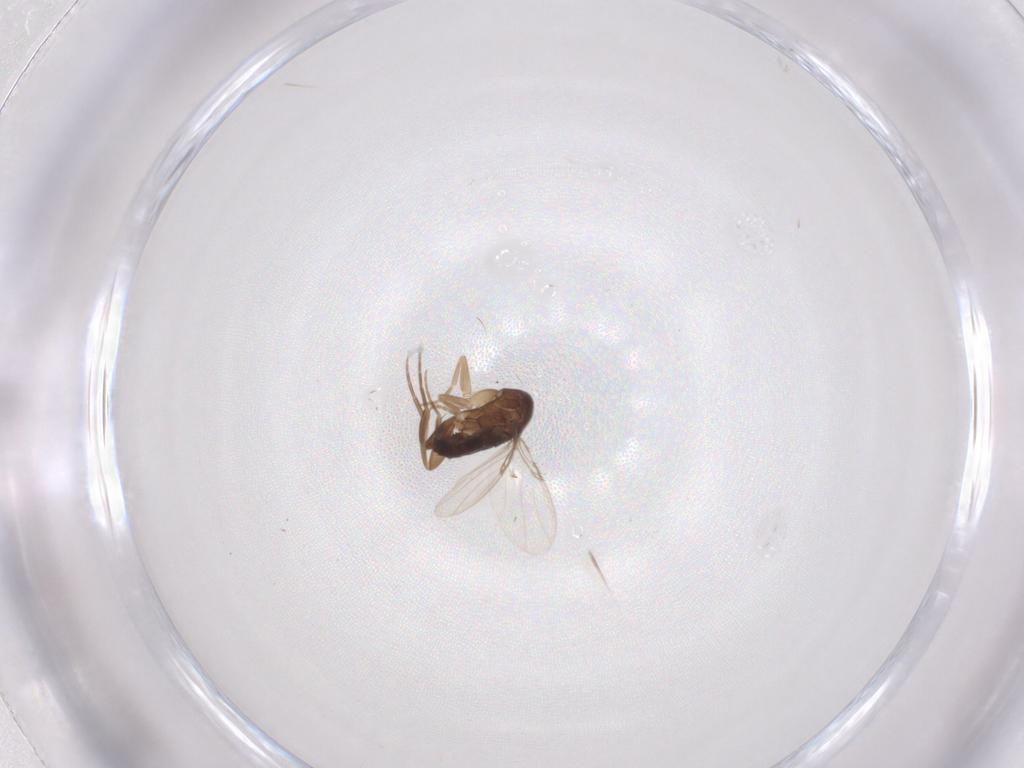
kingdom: Animalia
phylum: Arthropoda
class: Insecta
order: Diptera
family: Phoridae
